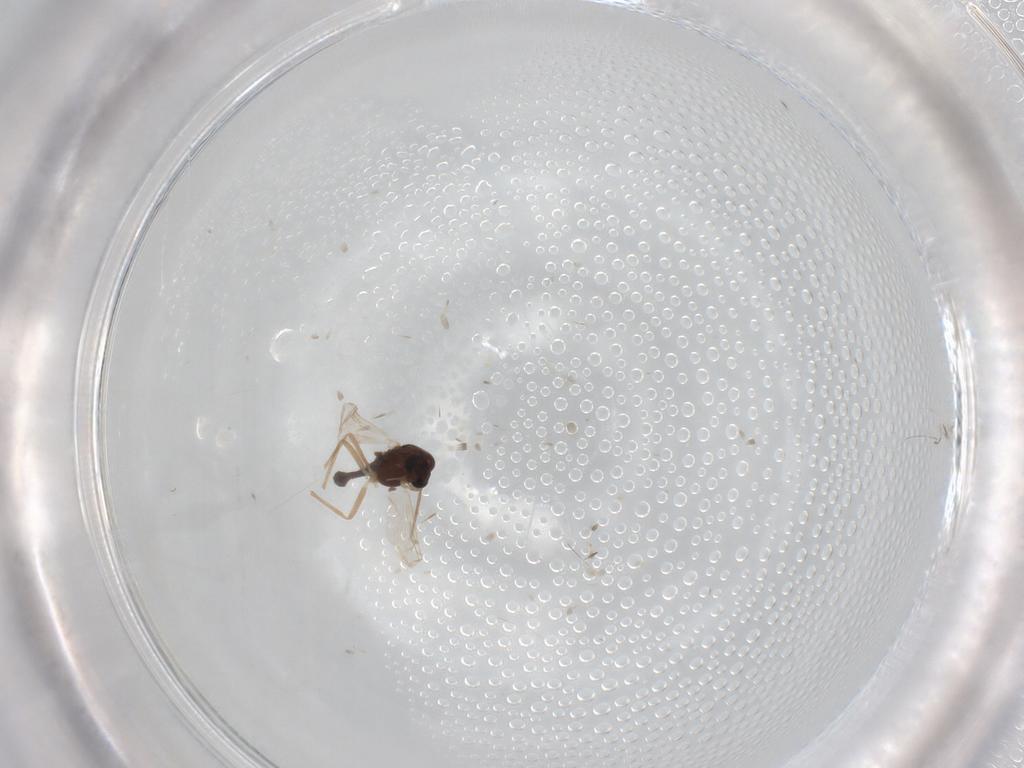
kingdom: Animalia
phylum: Arthropoda
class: Insecta
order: Diptera
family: Chironomidae
